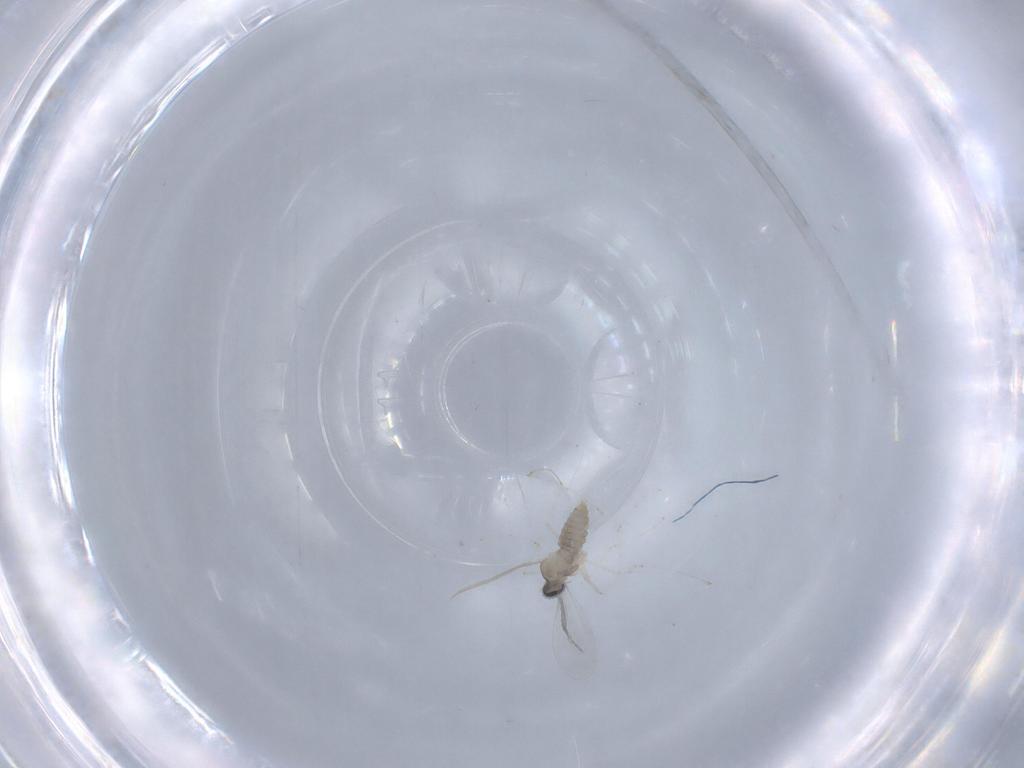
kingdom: Animalia
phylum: Arthropoda
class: Insecta
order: Diptera
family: Cecidomyiidae
